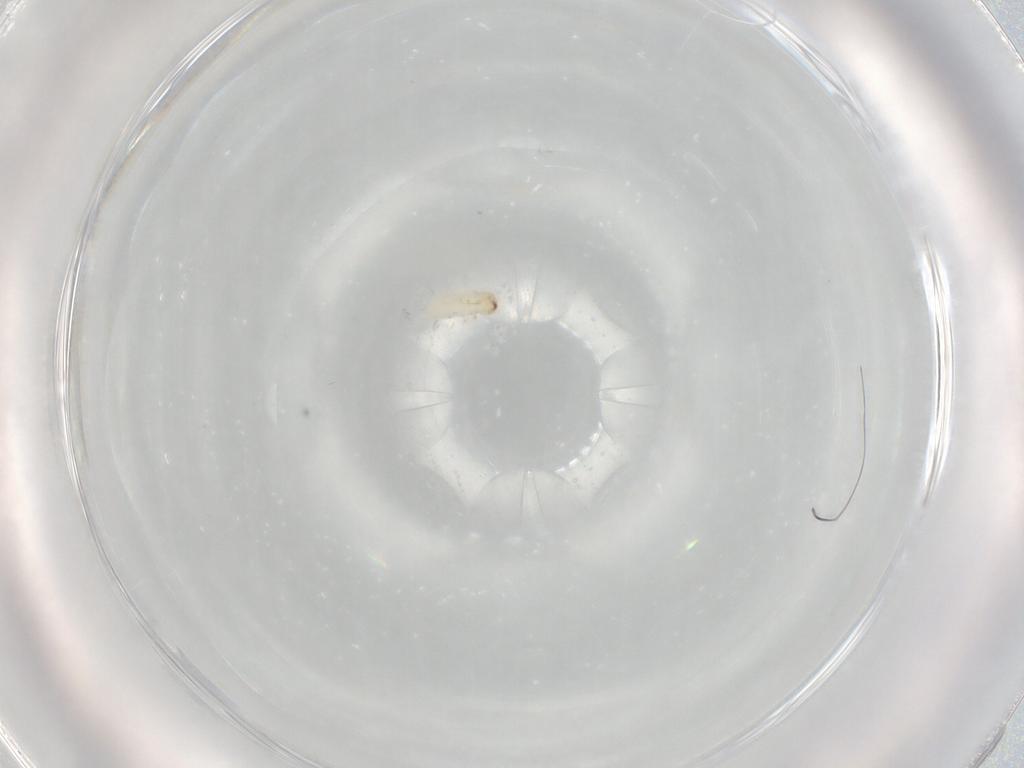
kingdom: Animalia
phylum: Arthropoda
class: Insecta
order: Coleoptera
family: Chrysomelidae
